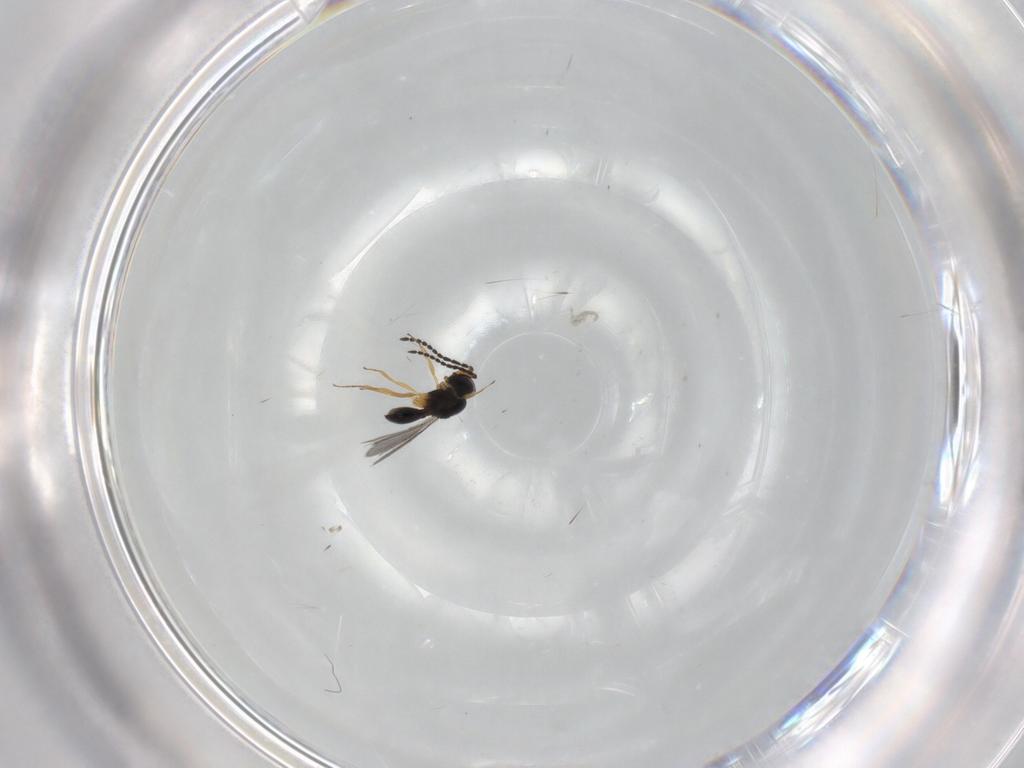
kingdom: Animalia
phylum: Arthropoda
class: Insecta
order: Hymenoptera
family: Scelionidae
